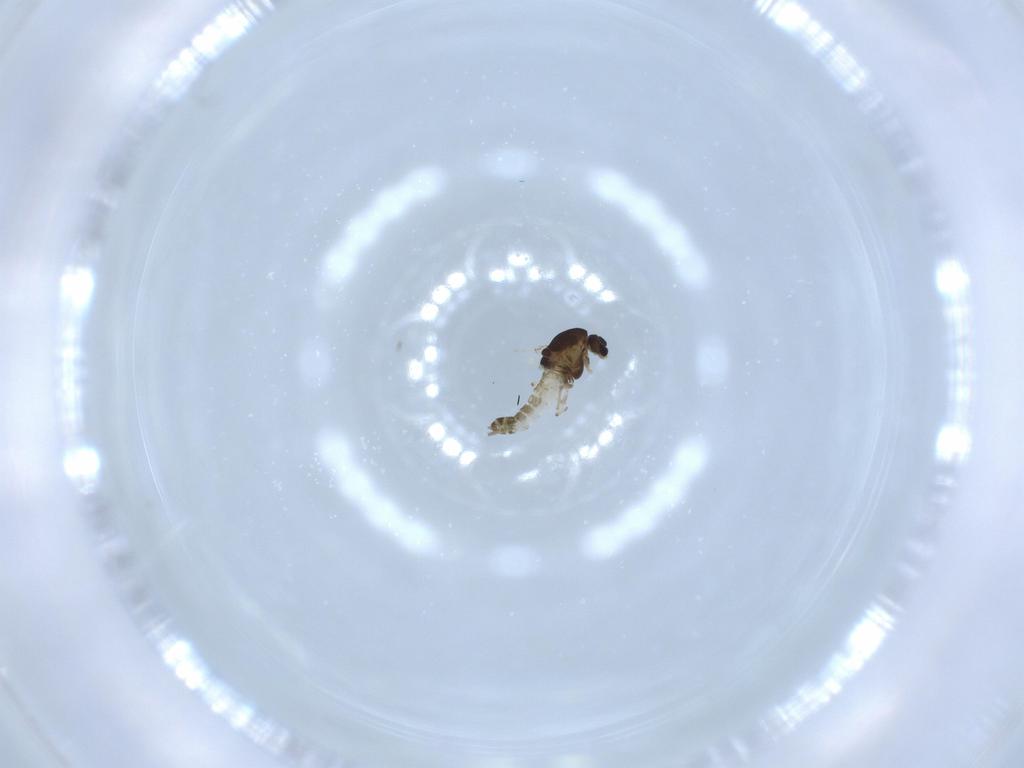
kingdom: Animalia
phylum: Arthropoda
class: Insecta
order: Diptera
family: Chironomidae
